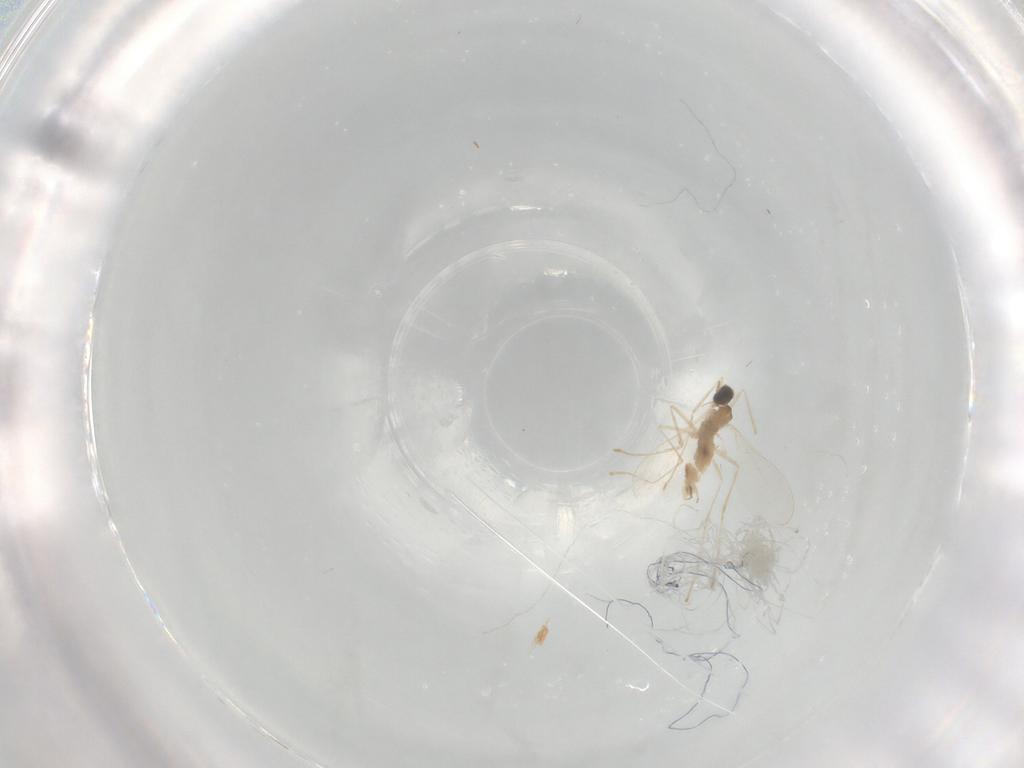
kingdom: Animalia
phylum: Arthropoda
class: Insecta
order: Diptera
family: Cecidomyiidae
